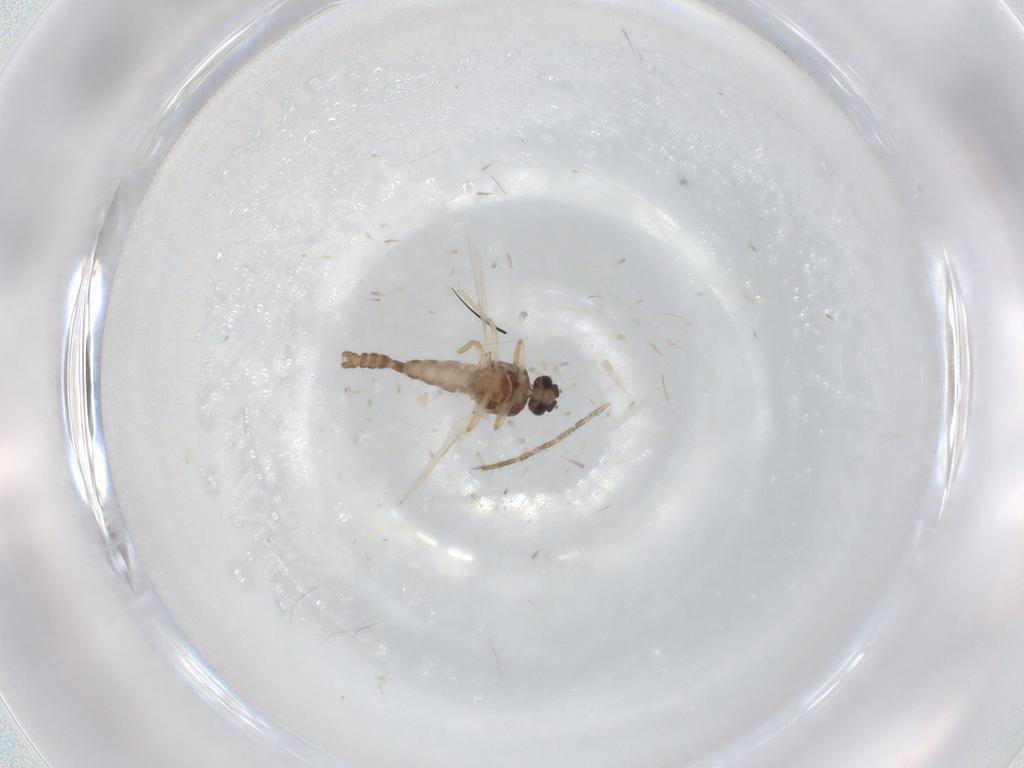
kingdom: Animalia
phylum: Arthropoda
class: Insecta
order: Diptera
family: Ceratopogonidae
